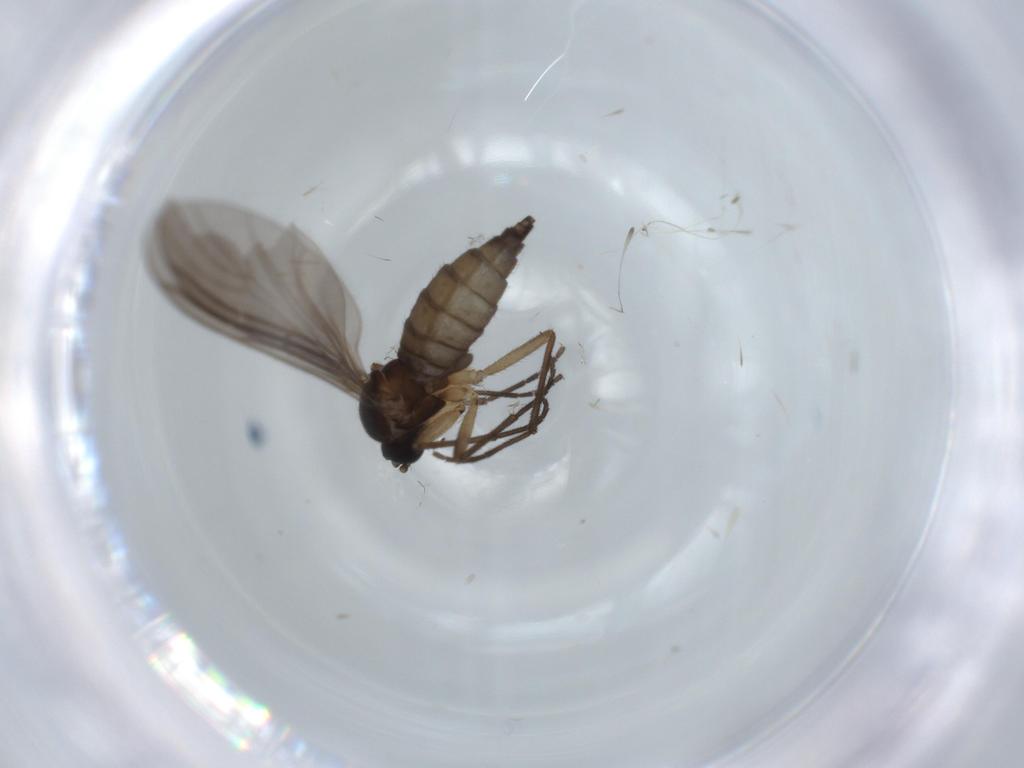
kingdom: Animalia
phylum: Arthropoda
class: Insecta
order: Diptera
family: Sciaridae
